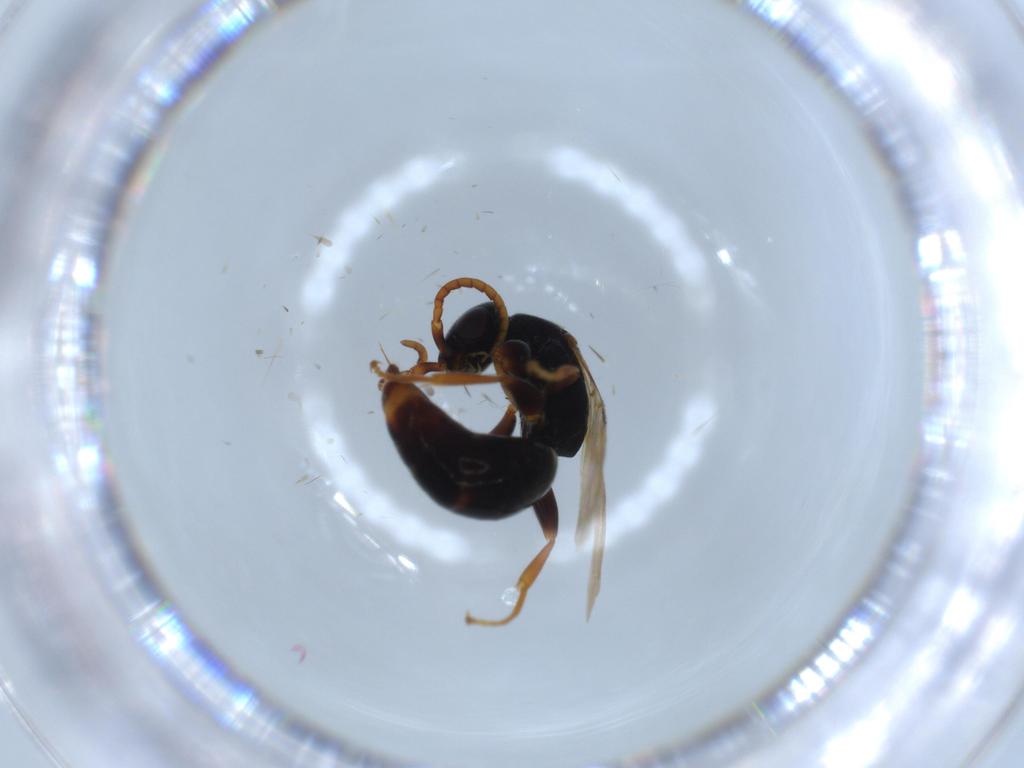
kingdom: Animalia
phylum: Arthropoda
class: Insecta
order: Hymenoptera
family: Bethylidae
